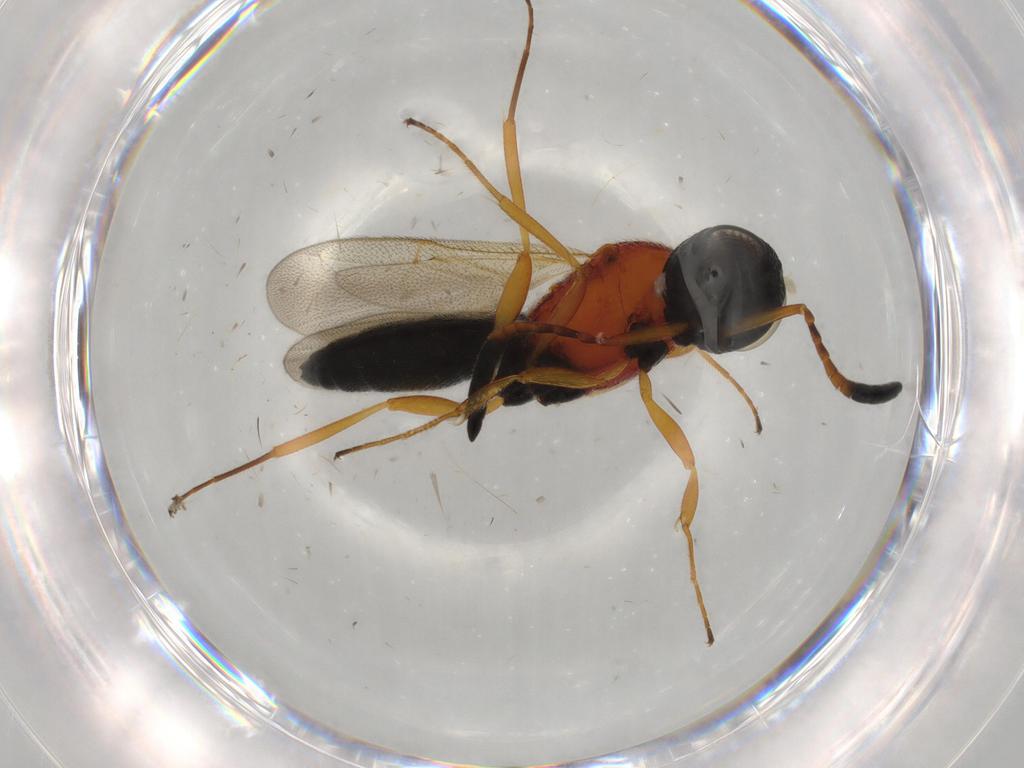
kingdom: Animalia
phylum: Arthropoda
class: Insecta
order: Hymenoptera
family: Scelionidae
